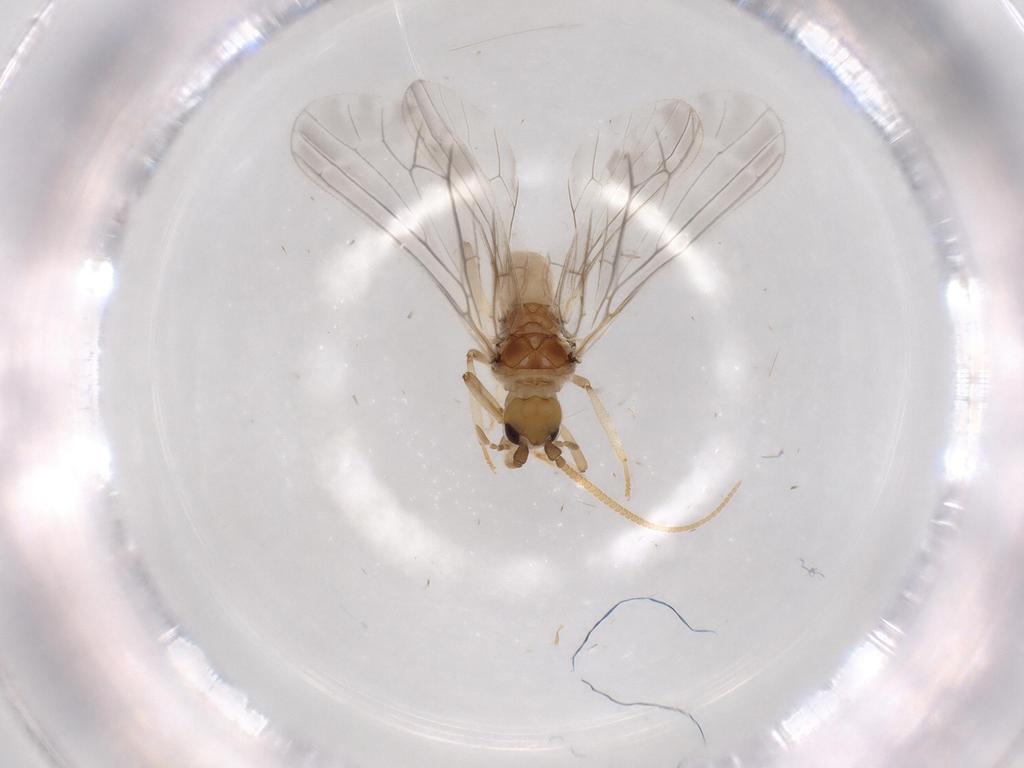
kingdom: Animalia
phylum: Arthropoda
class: Insecta
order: Neuroptera
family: Coniopterygidae
